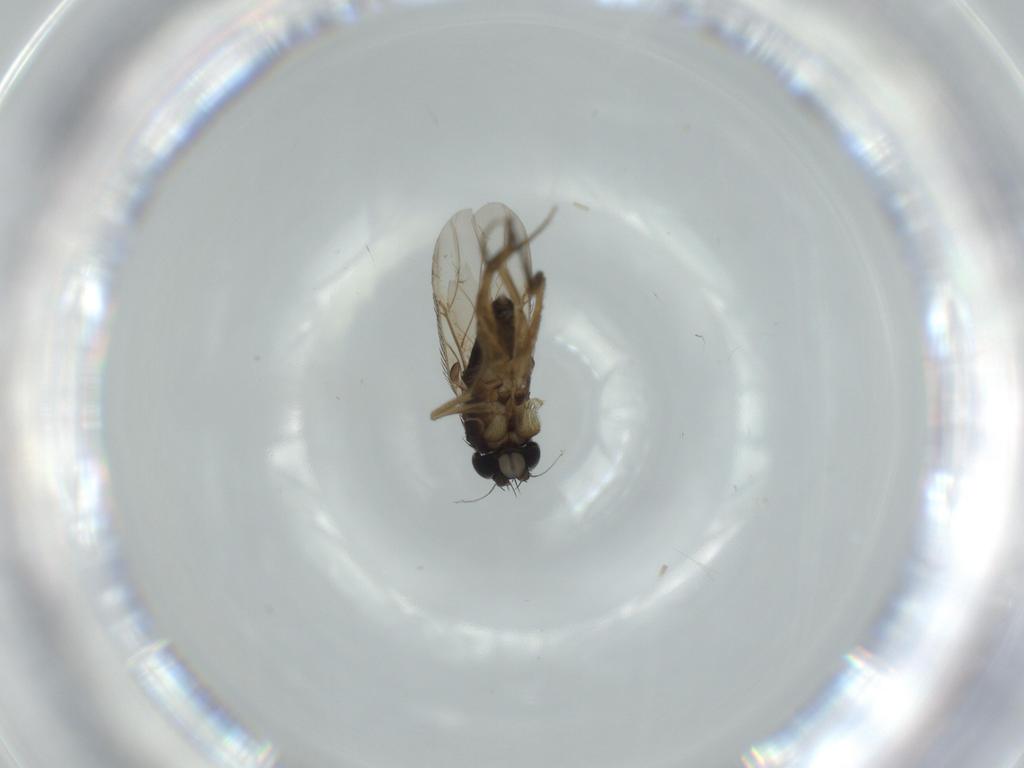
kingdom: Animalia
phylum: Arthropoda
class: Insecta
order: Diptera
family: Phoridae
